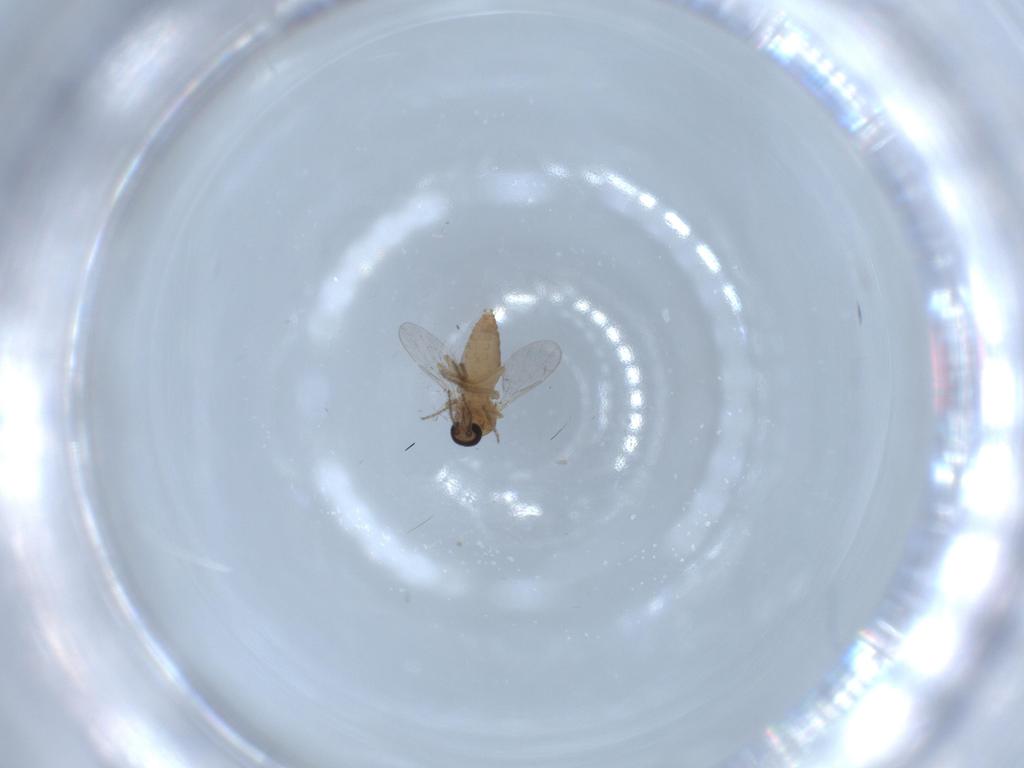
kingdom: Animalia
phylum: Arthropoda
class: Insecta
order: Diptera
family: Ceratopogonidae
